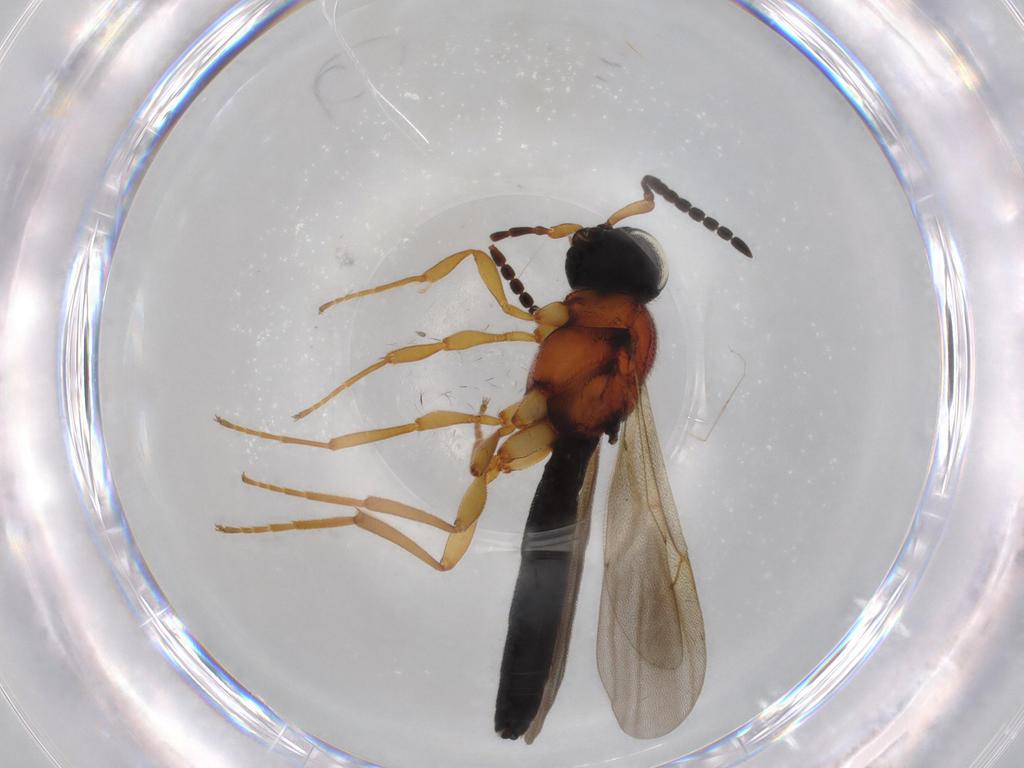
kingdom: Animalia
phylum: Arthropoda
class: Insecta
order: Hymenoptera
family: Scelionidae
